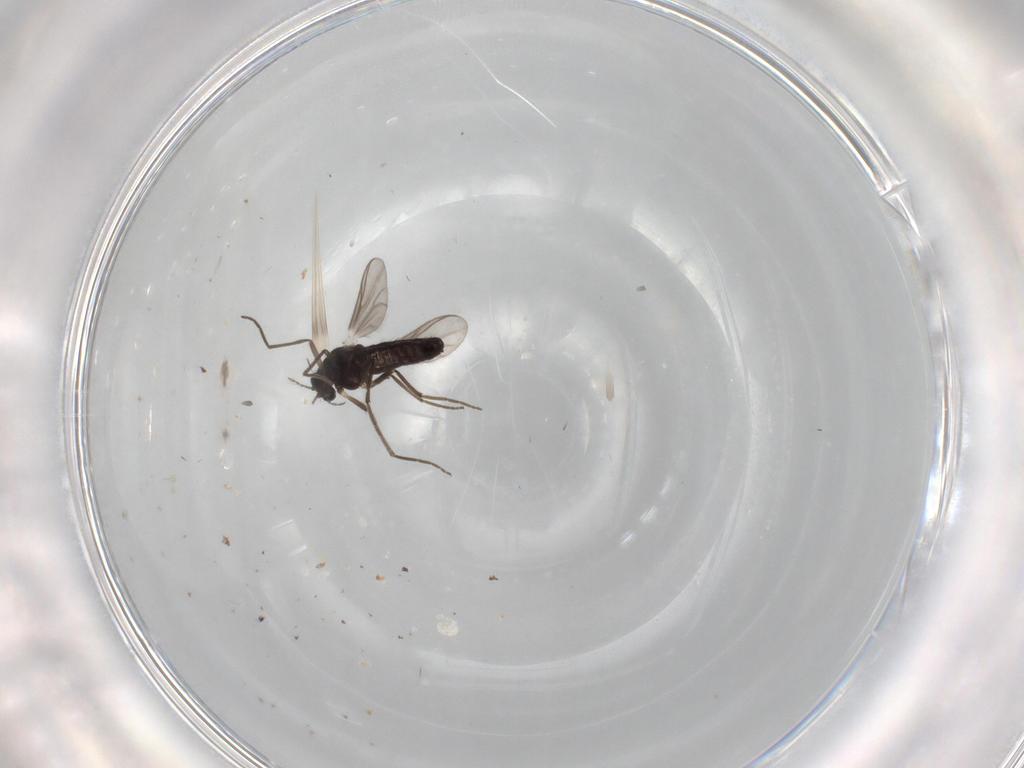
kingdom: Animalia
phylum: Arthropoda
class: Insecta
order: Diptera
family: Chironomidae
